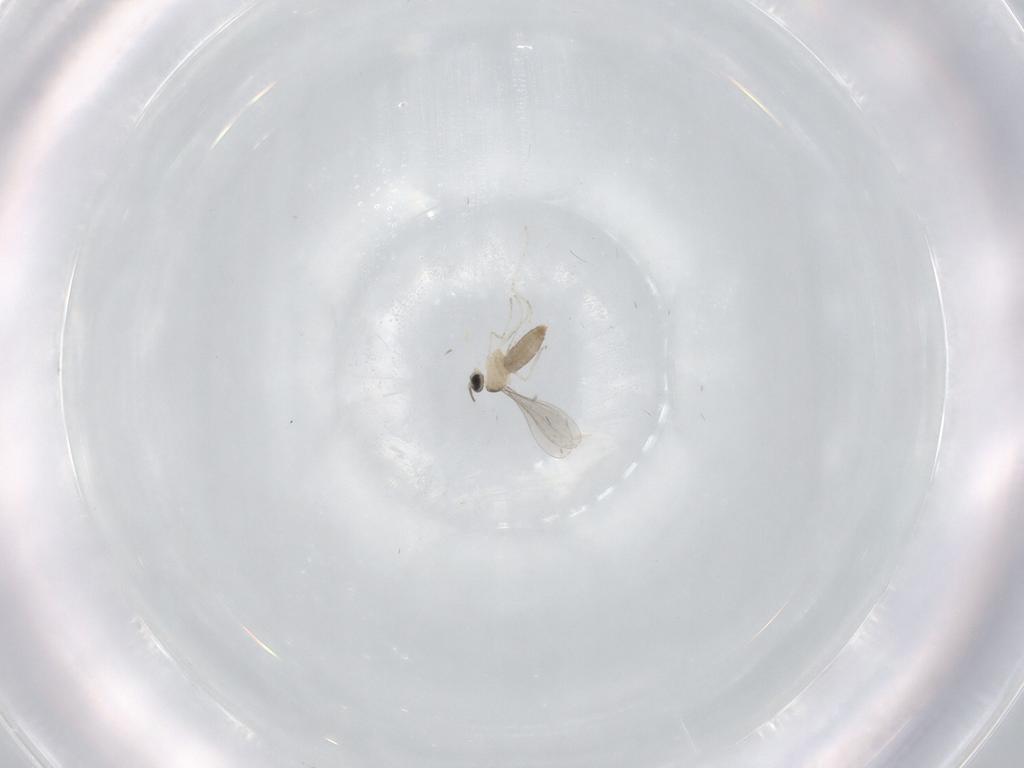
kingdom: Animalia
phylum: Arthropoda
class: Insecta
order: Diptera
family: Cecidomyiidae
